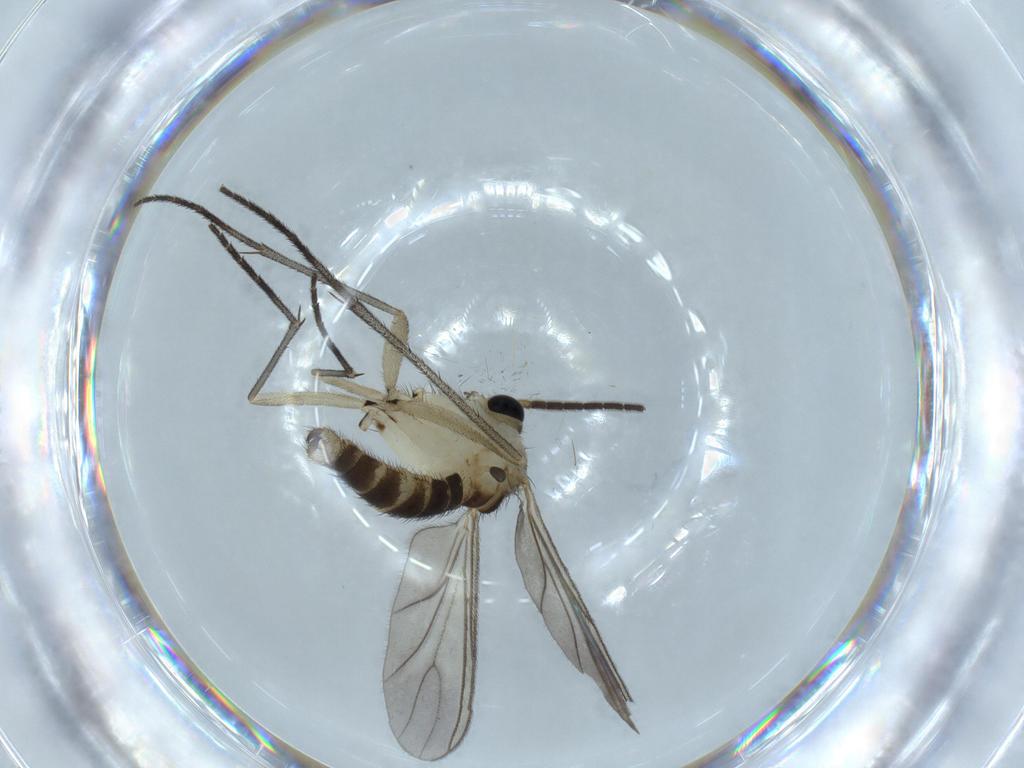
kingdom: Animalia
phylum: Arthropoda
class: Insecta
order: Diptera
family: Sciaridae
